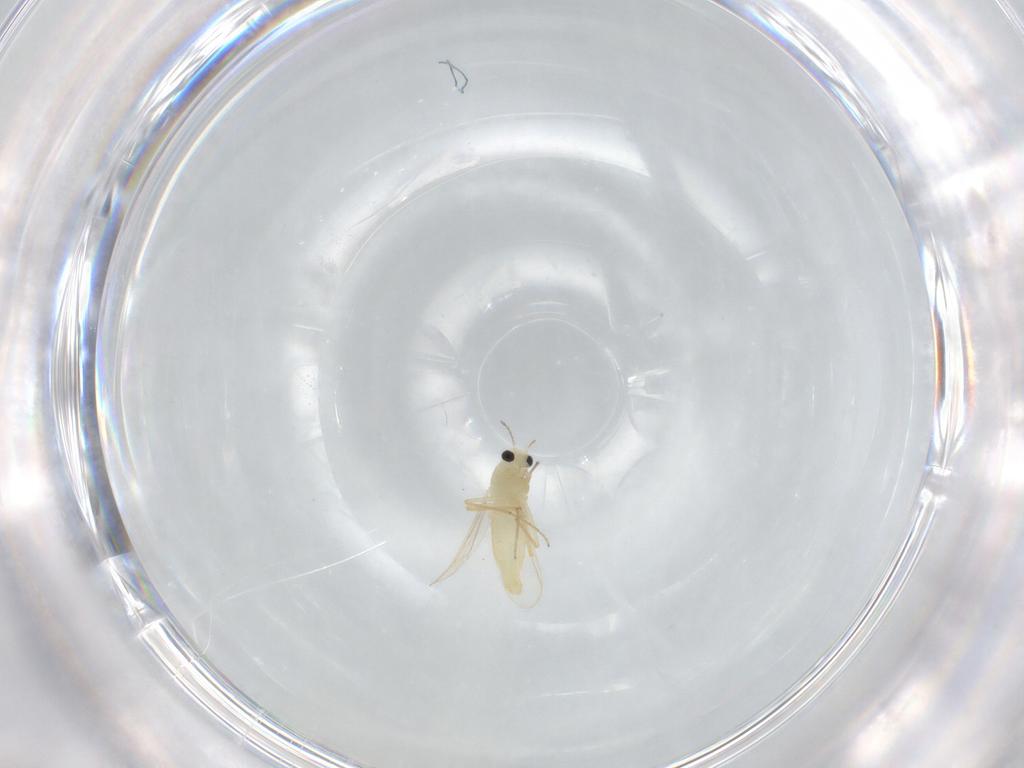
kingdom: Animalia
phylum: Arthropoda
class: Insecta
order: Diptera
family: Chironomidae
